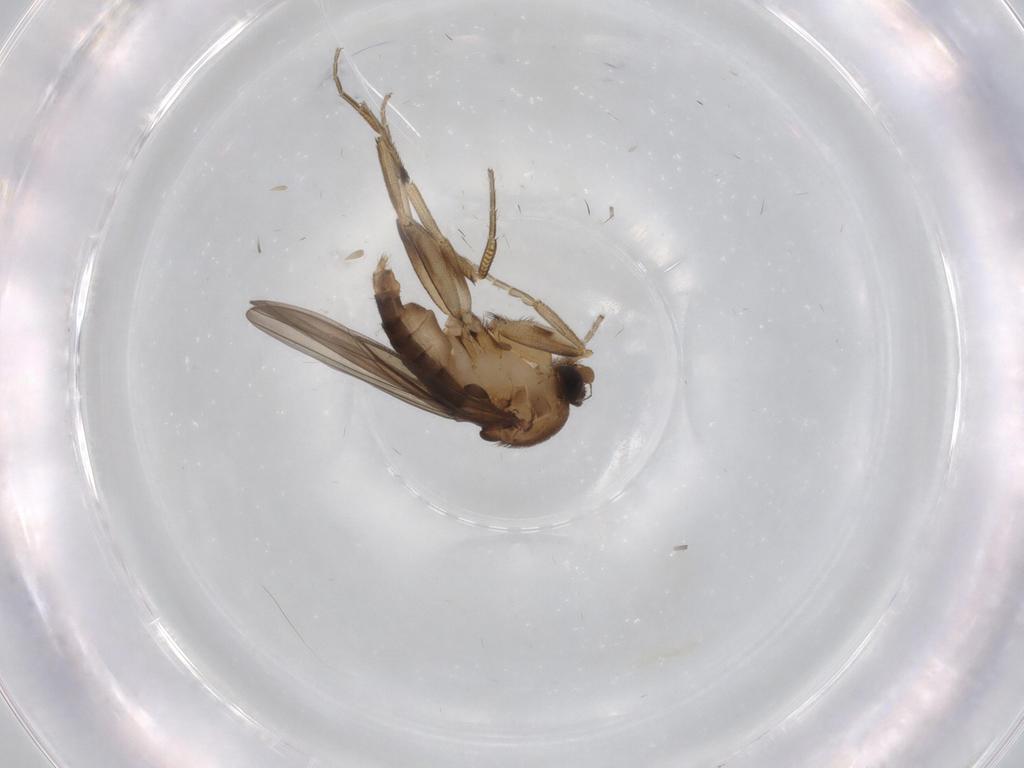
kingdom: Animalia
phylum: Arthropoda
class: Insecta
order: Diptera
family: Phoridae
